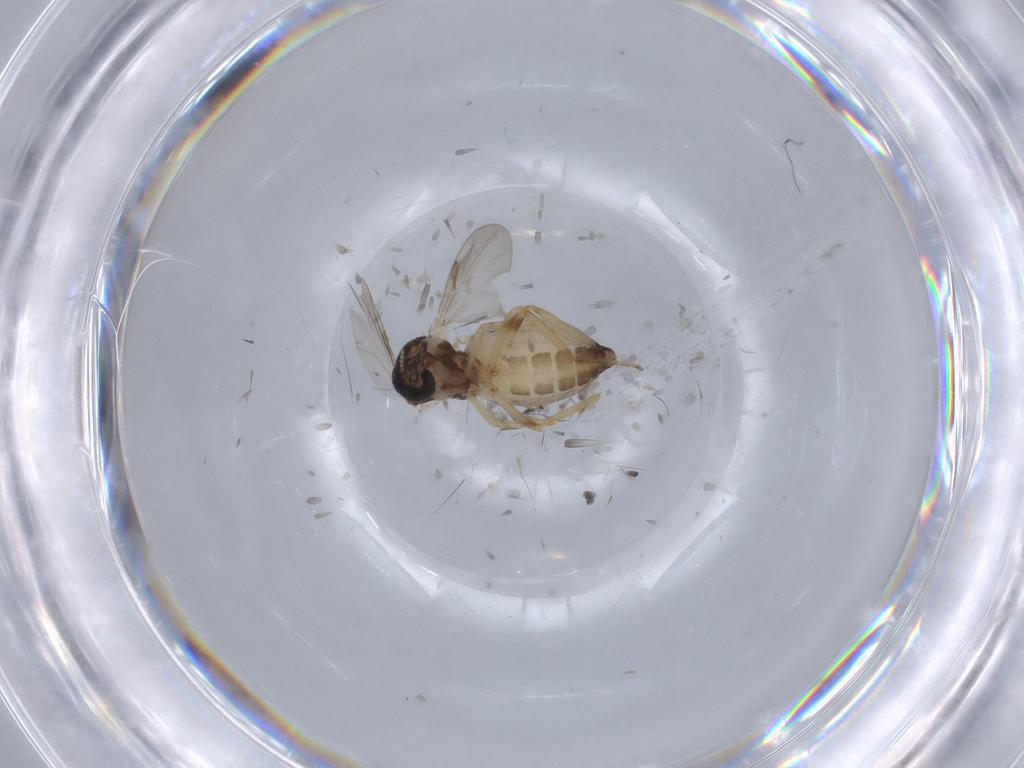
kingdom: Animalia
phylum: Arthropoda
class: Insecta
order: Diptera
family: Ceratopogonidae
